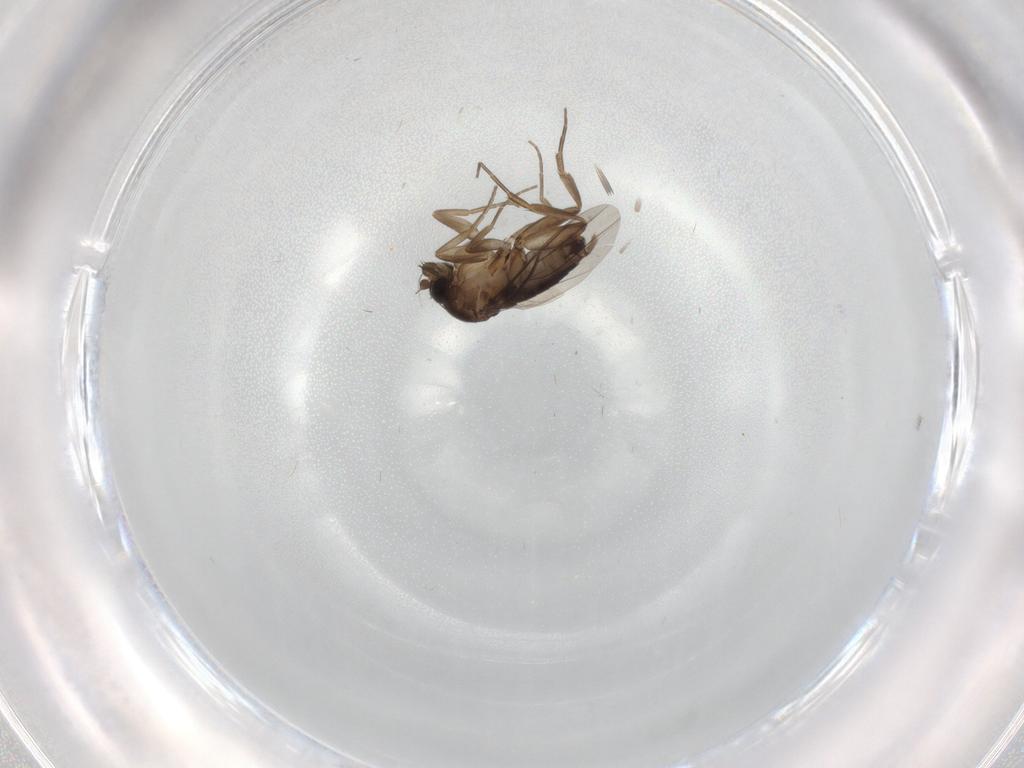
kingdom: Animalia
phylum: Arthropoda
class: Insecta
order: Diptera
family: Phoridae
